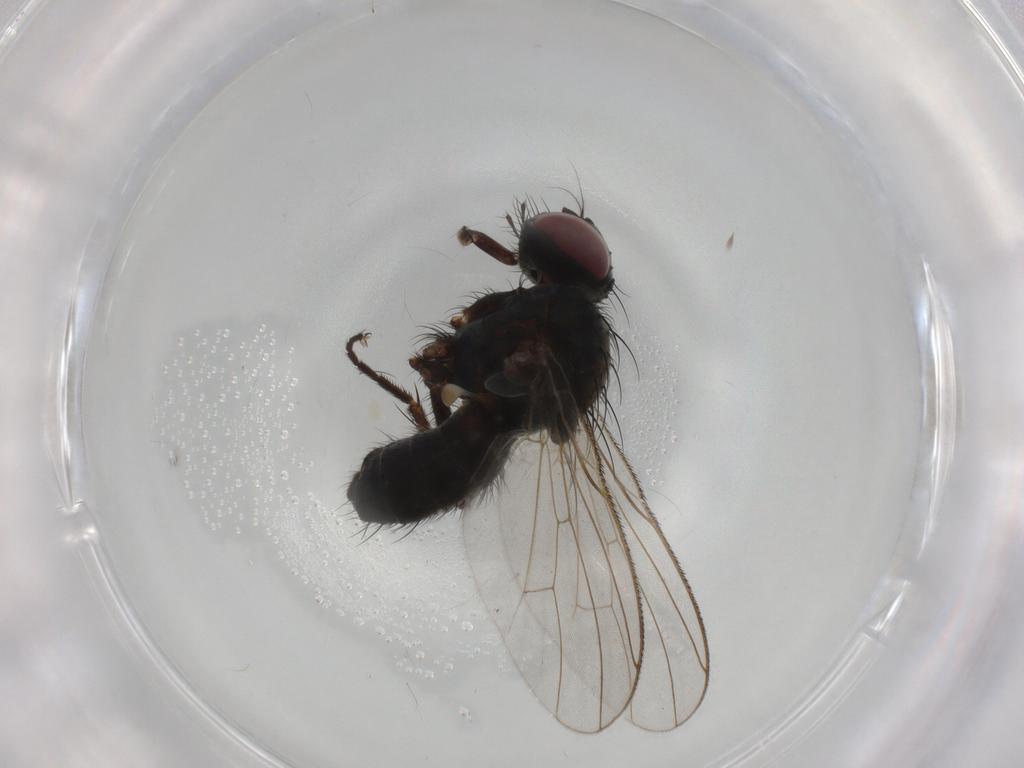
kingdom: Animalia
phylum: Arthropoda
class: Insecta
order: Diptera
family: Muscidae
